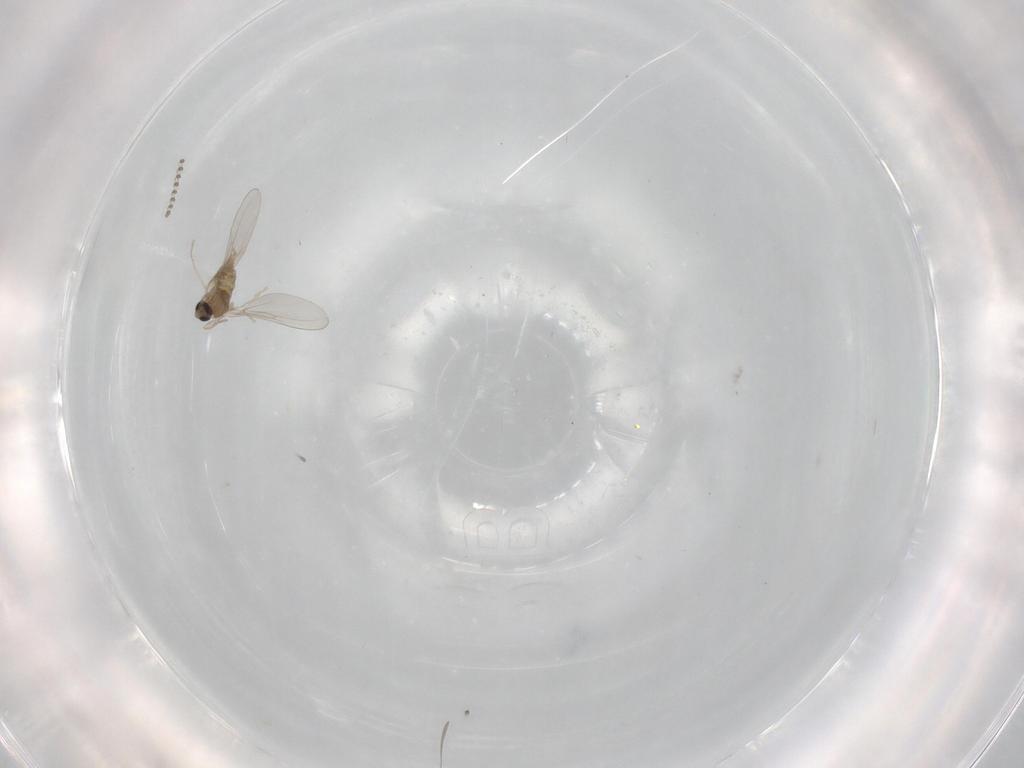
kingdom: Animalia
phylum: Arthropoda
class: Insecta
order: Diptera
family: Cecidomyiidae
